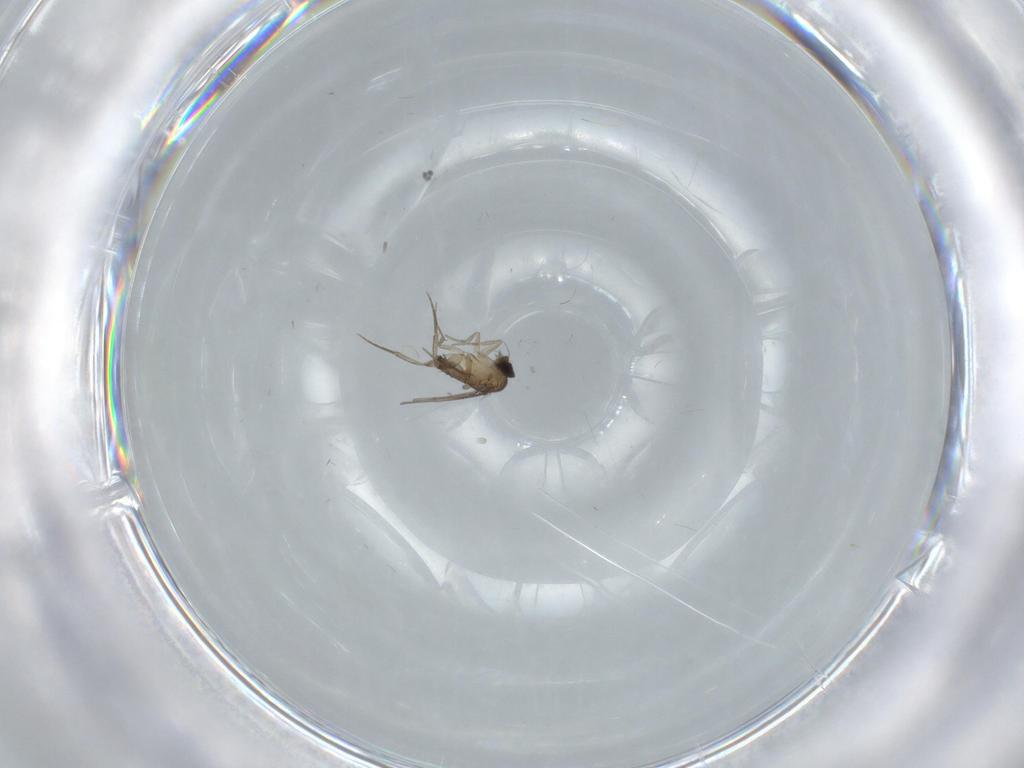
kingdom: Animalia
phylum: Arthropoda
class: Insecta
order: Diptera
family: Phoridae
